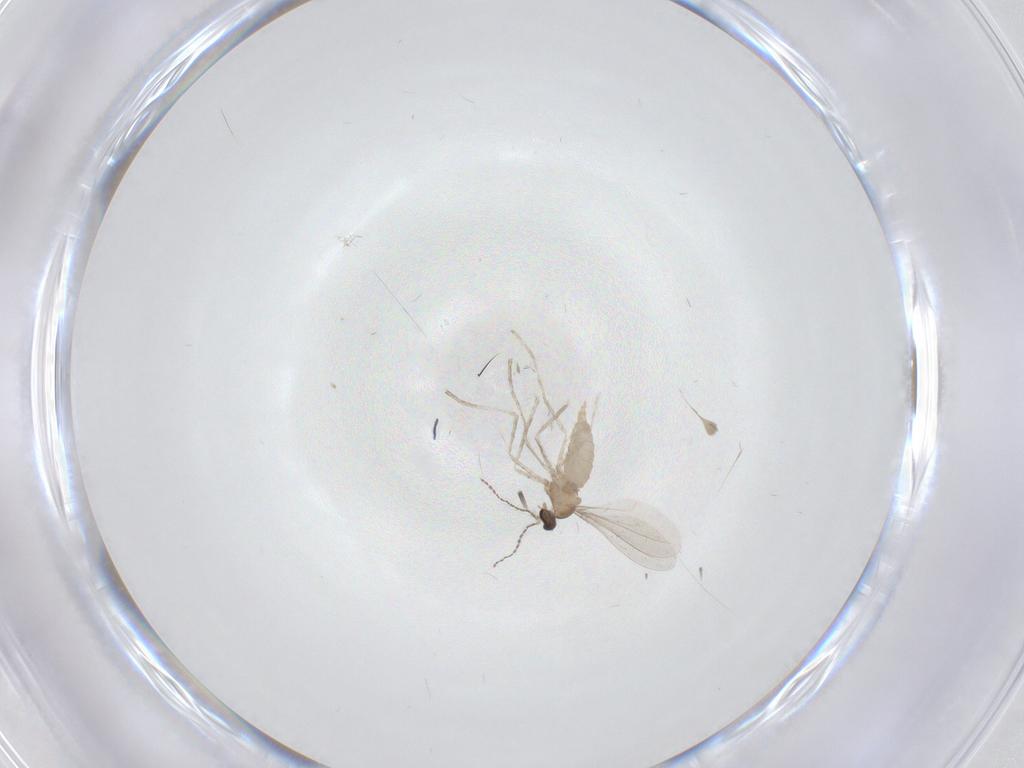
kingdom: Animalia
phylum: Arthropoda
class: Insecta
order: Diptera
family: Cecidomyiidae
